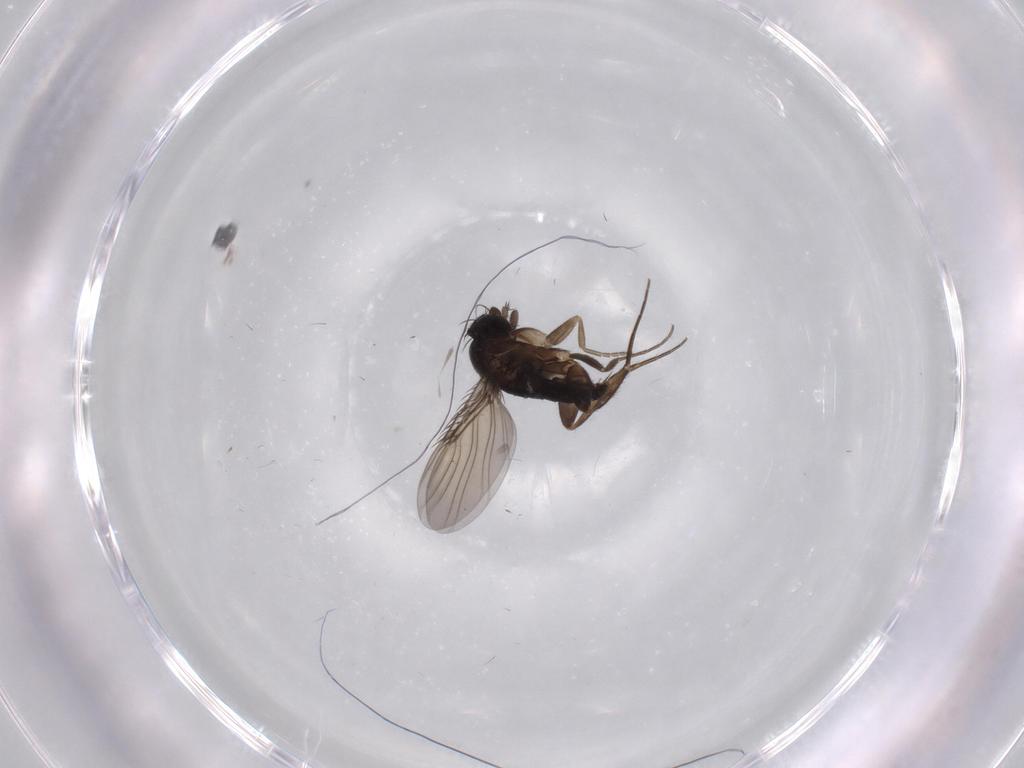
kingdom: Animalia
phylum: Arthropoda
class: Insecta
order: Diptera
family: Phoridae
